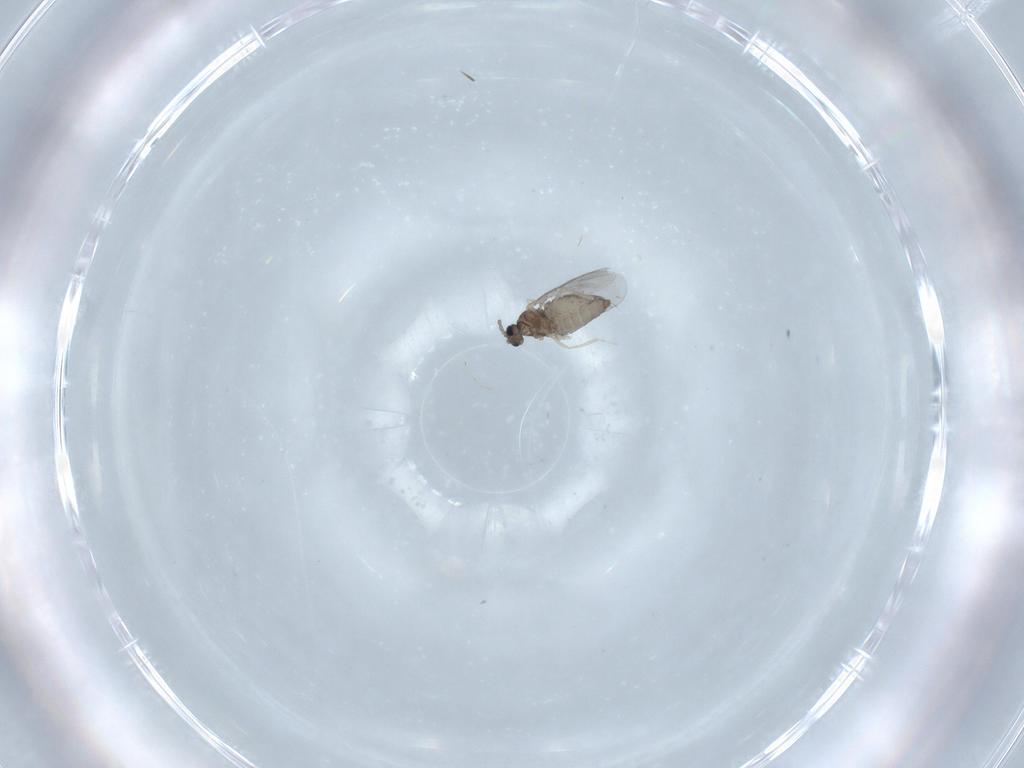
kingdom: Animalia
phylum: Arthropoda
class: Insecta
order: Diptera
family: Cecidomyiidae
